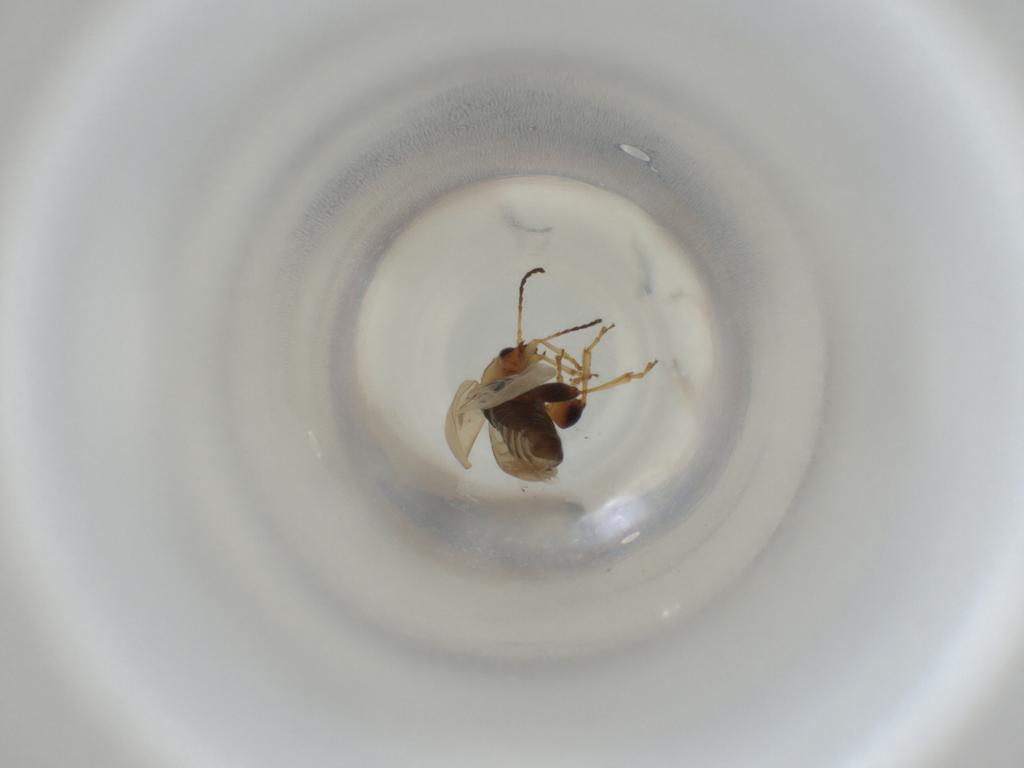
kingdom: Animalia
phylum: Arthropoda
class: Insecta
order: Coleoptera
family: Chrysomelidae
